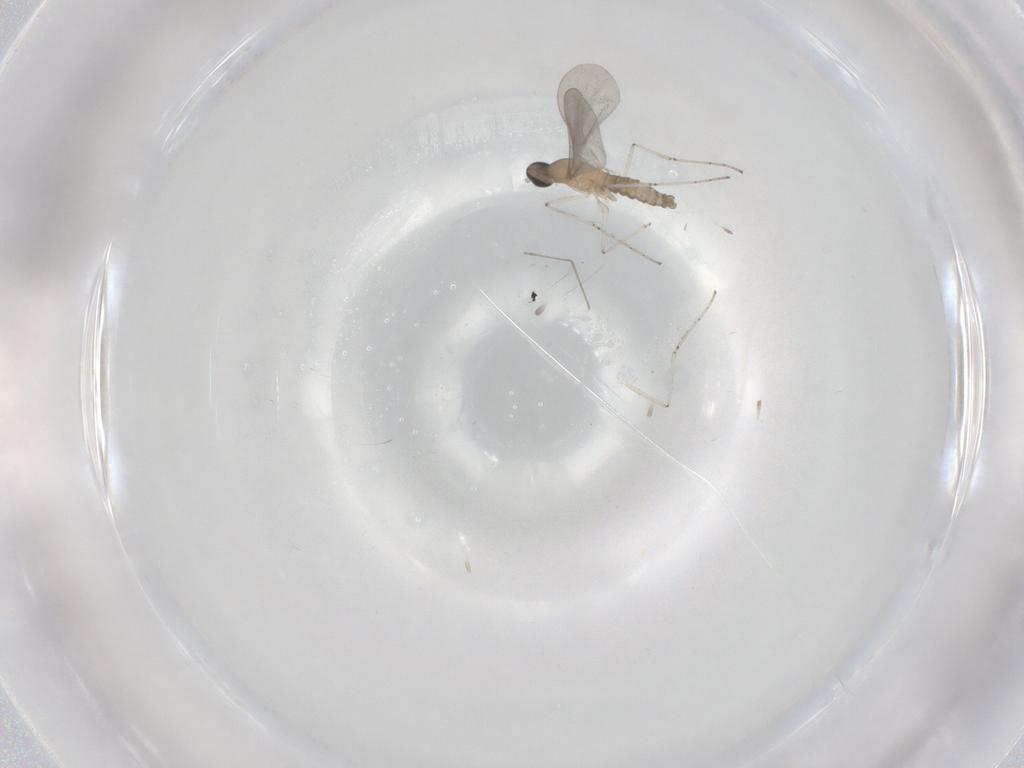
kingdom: Animalia
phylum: Arthropoda
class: Insecta
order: Diptera
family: Cecidomyiidae
